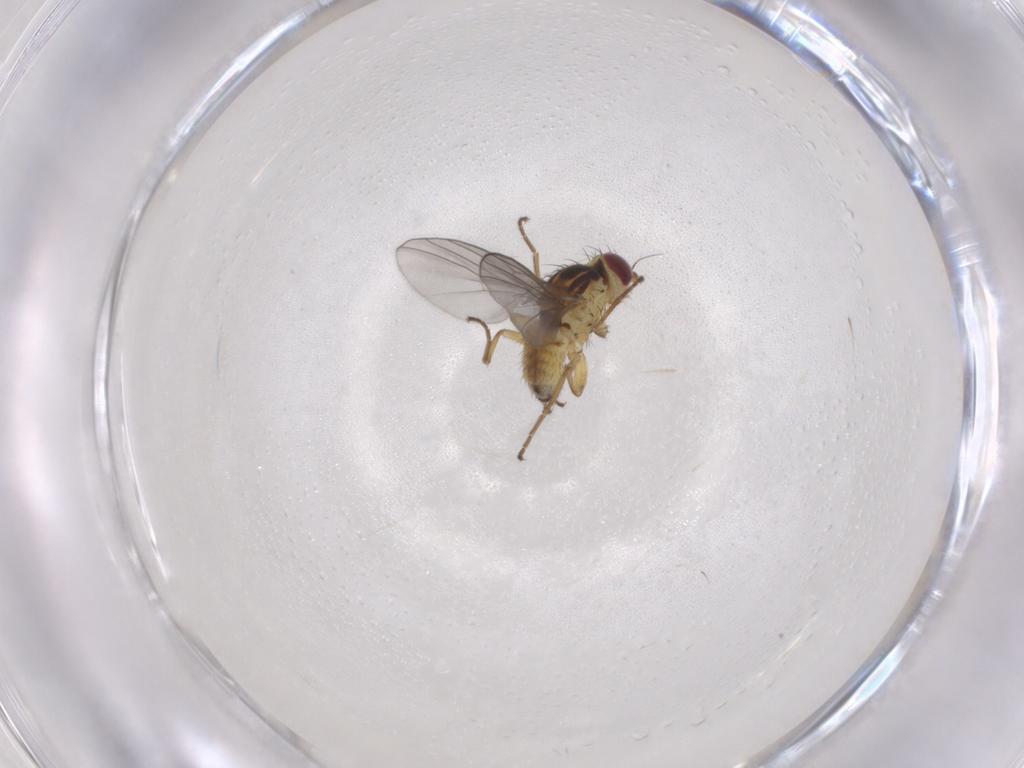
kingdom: Animalia
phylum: Arthropoda
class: Insecta
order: Diptera
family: Agromyzidae
